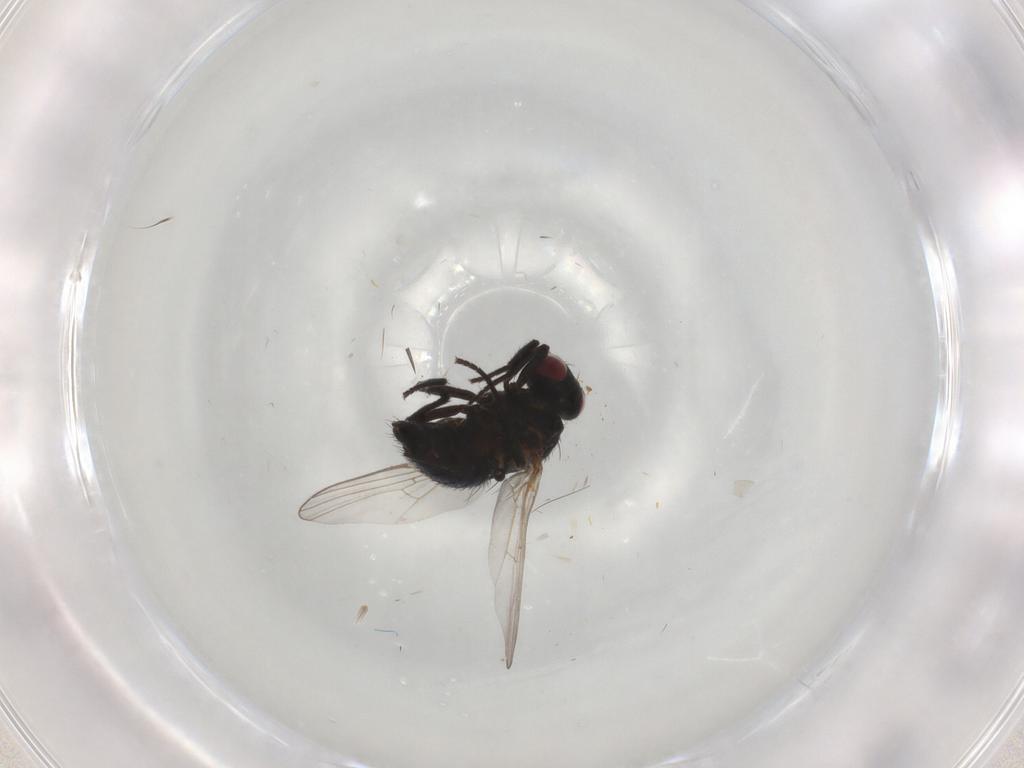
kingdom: Animalia
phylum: Arthropoda
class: Insecta
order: Diptera
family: Agromyzidae
